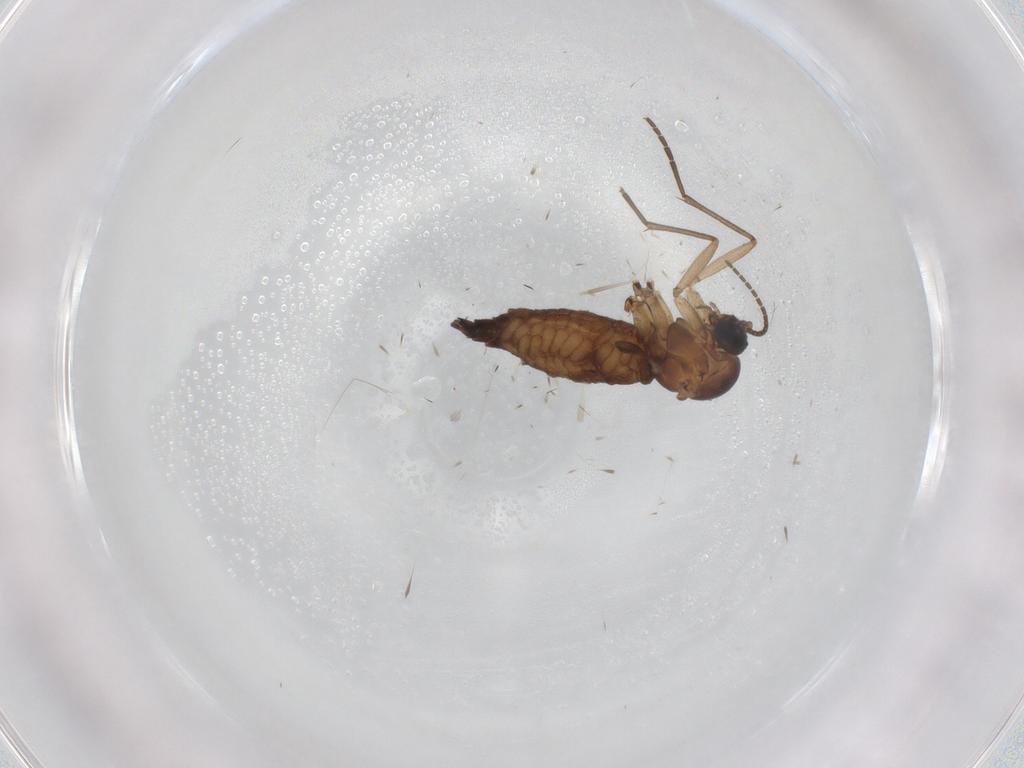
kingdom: Animalia
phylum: Arthropoda
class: Insecta
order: Diptera
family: Sciaridae
